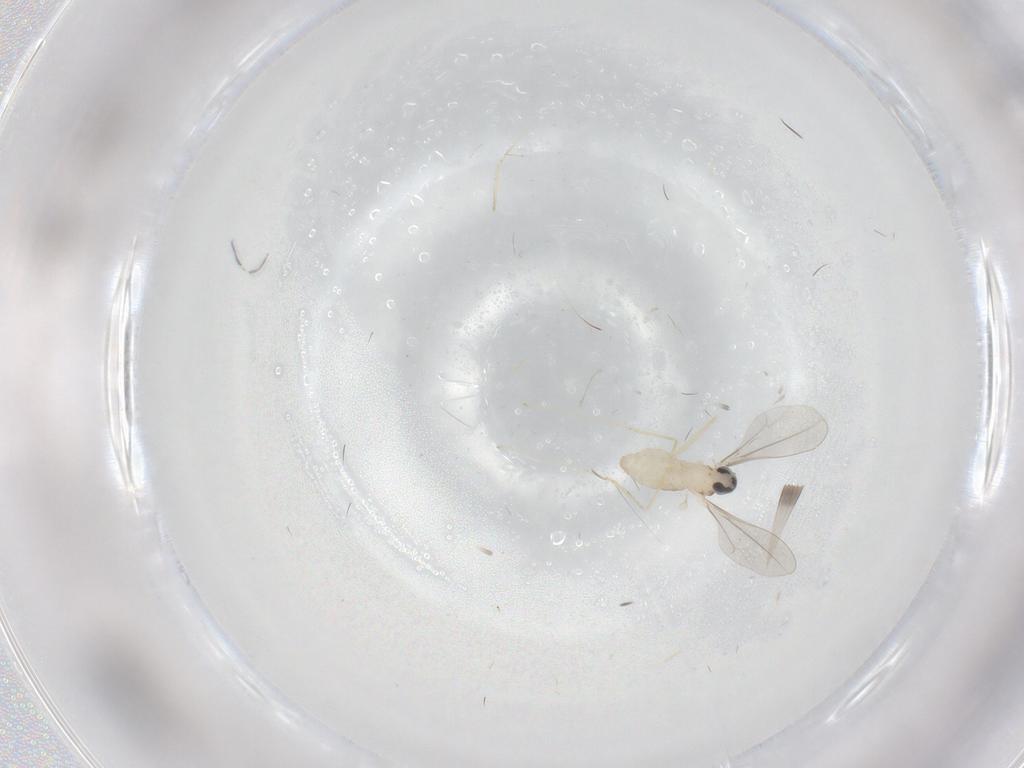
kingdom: Animalia
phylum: Arthropoda
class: Insecta
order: Diptera
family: Cecidomyiidae
